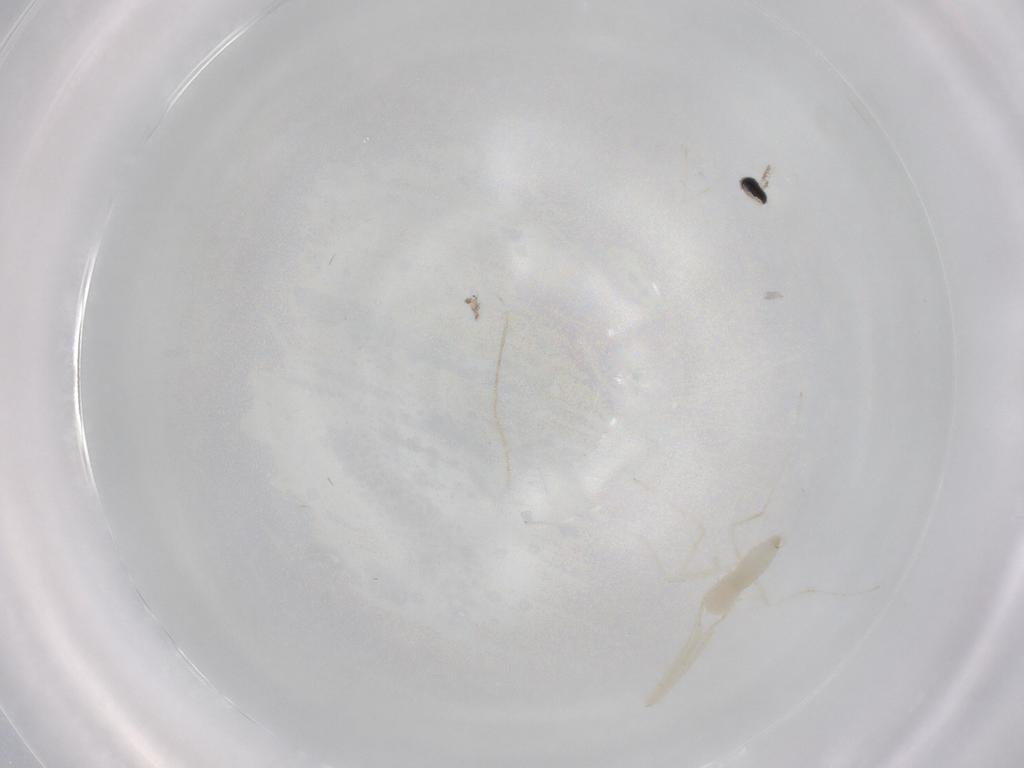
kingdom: Animalia
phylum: Arthropoda
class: Insecta
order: Diptera
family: Cecidomyiidae
